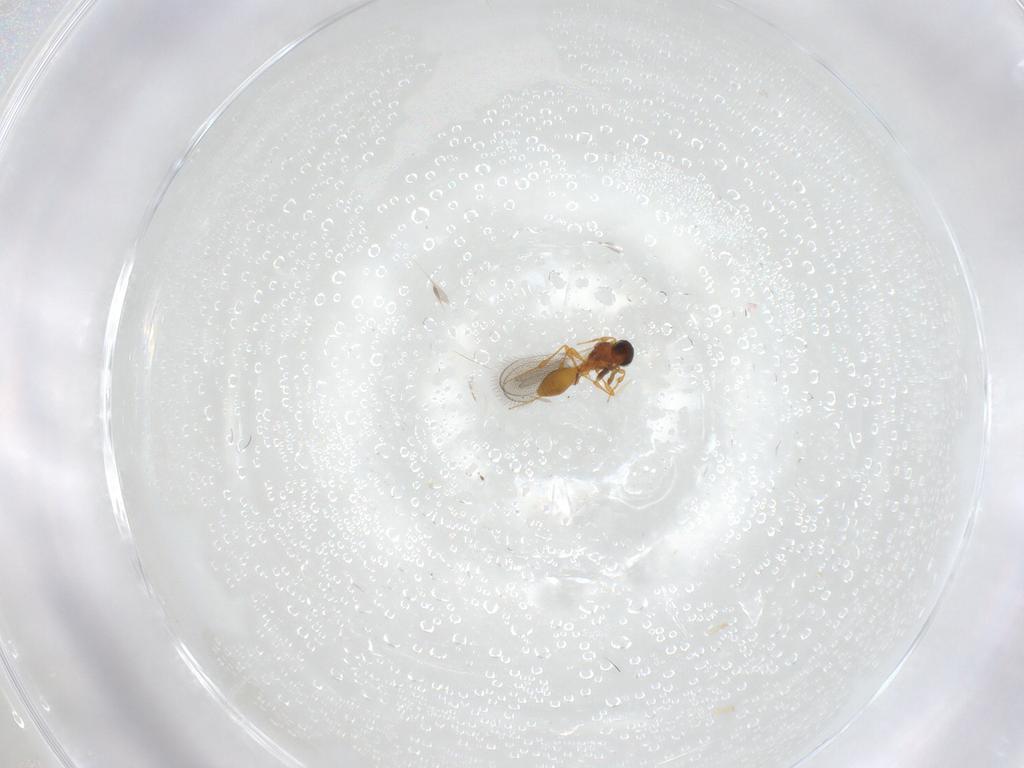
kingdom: Animalia
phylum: Arthropoda
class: Insecta
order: Hymenoptera
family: Platygastridae
